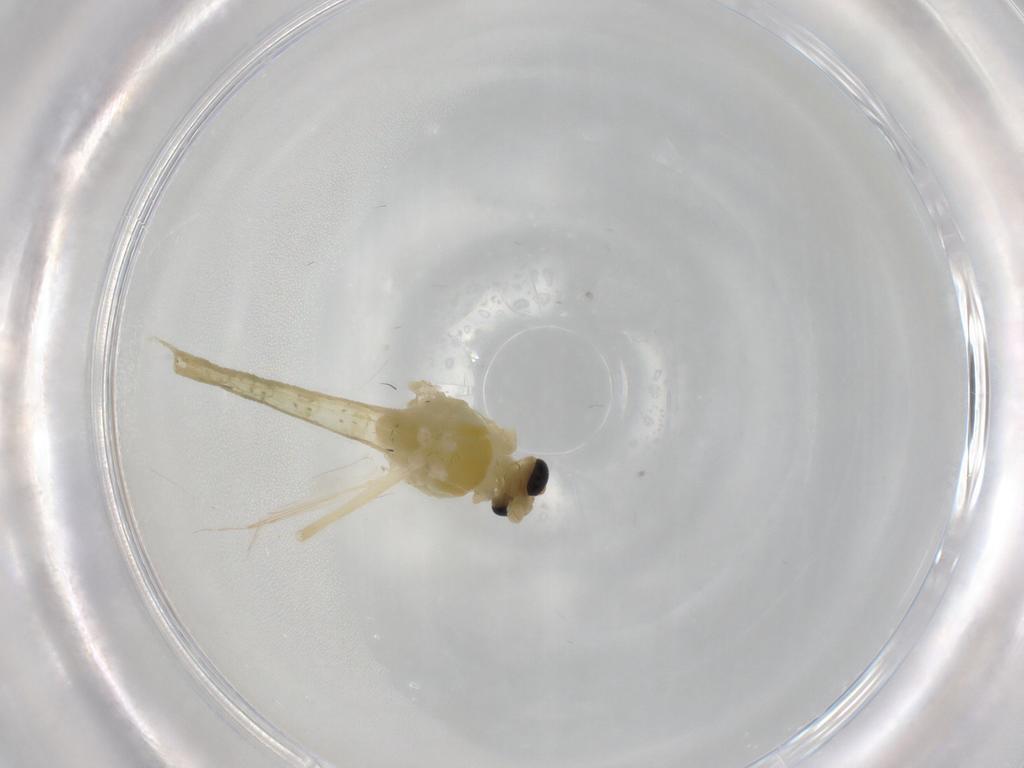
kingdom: Animalia
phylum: Arthropoda
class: Insecta
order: Diptera
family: Chironomidae
